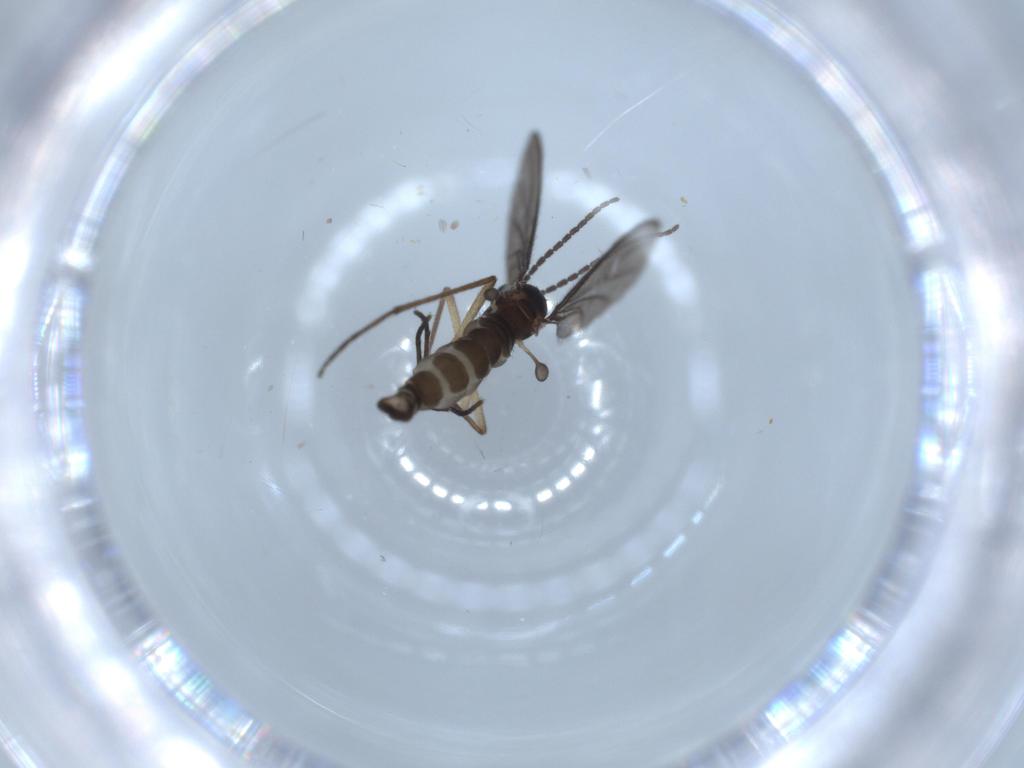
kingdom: Animalia
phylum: Arthropoda
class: Insecta
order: Diptera
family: Sciaridae
